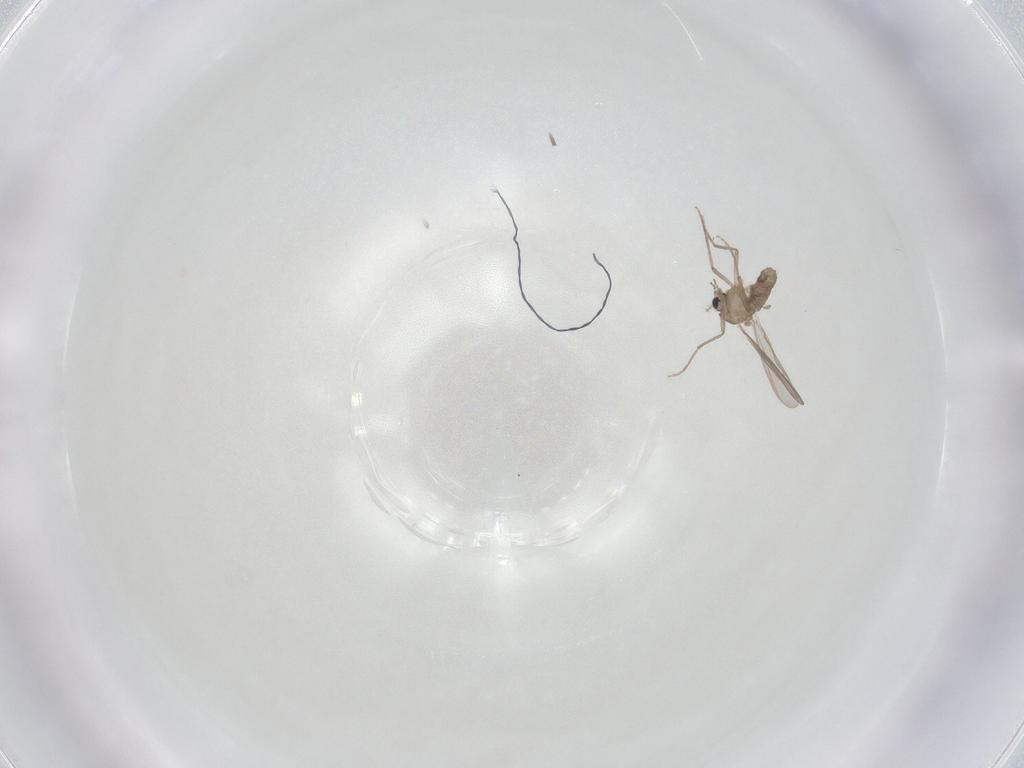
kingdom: Animalia
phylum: Arthropoda
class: Insecta
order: Diptera
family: Chironomidae
